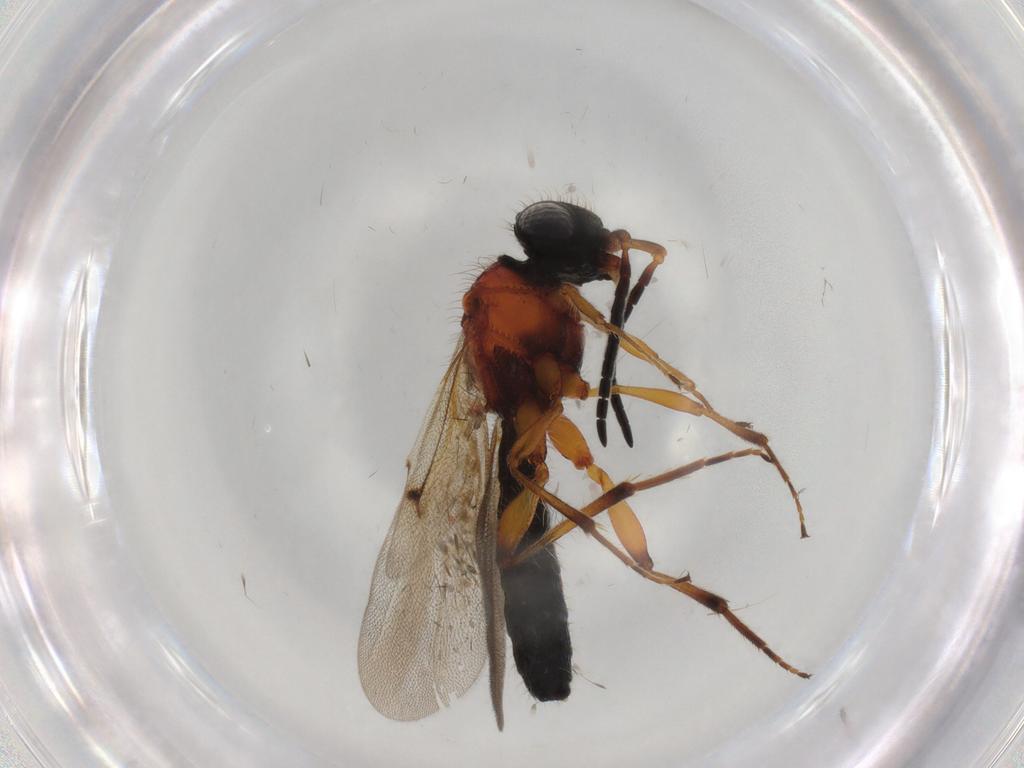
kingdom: Animalia
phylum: Arthropoda
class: Insecta
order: Hymenoptera
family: Scelionidae
